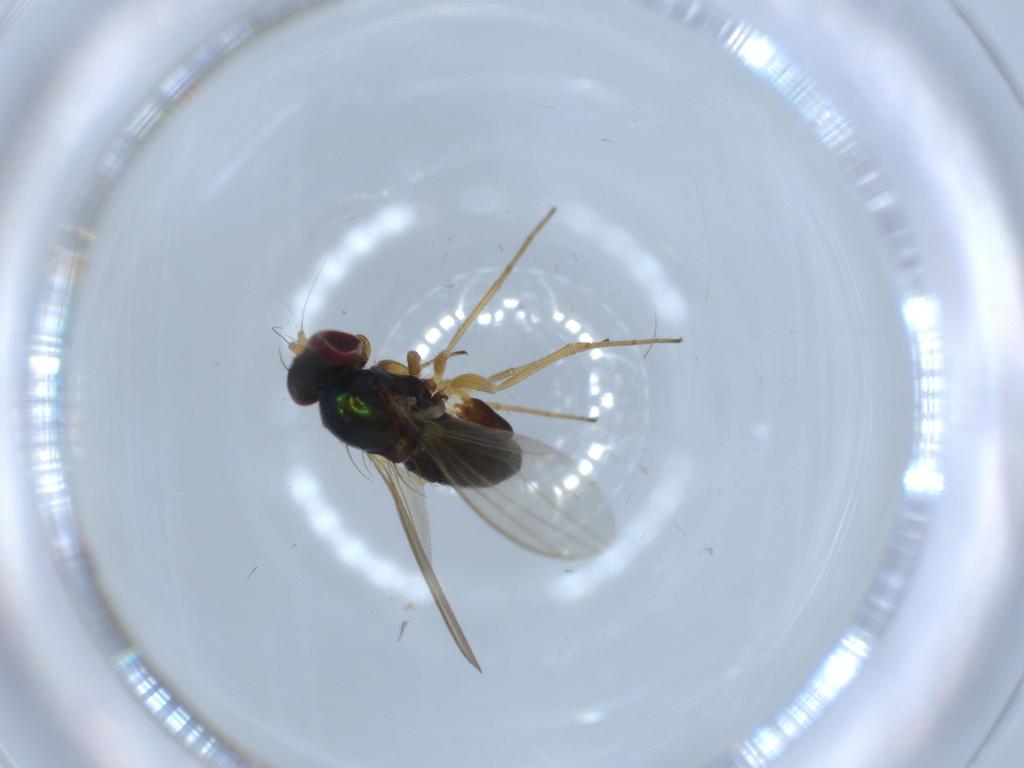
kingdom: Animalia
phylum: Arthropoda
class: Insecta
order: Diptera
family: Dolichopodidae
